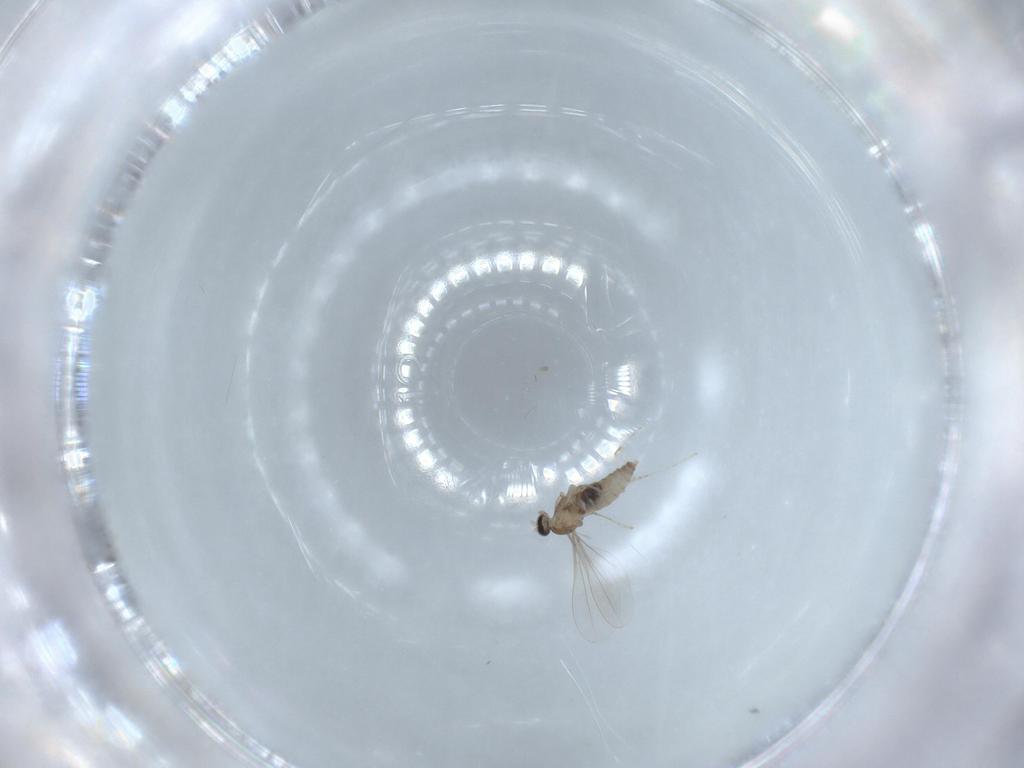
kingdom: Animalia
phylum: Arthropoda
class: Insecta
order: Diptera
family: Cecidomyiidae
